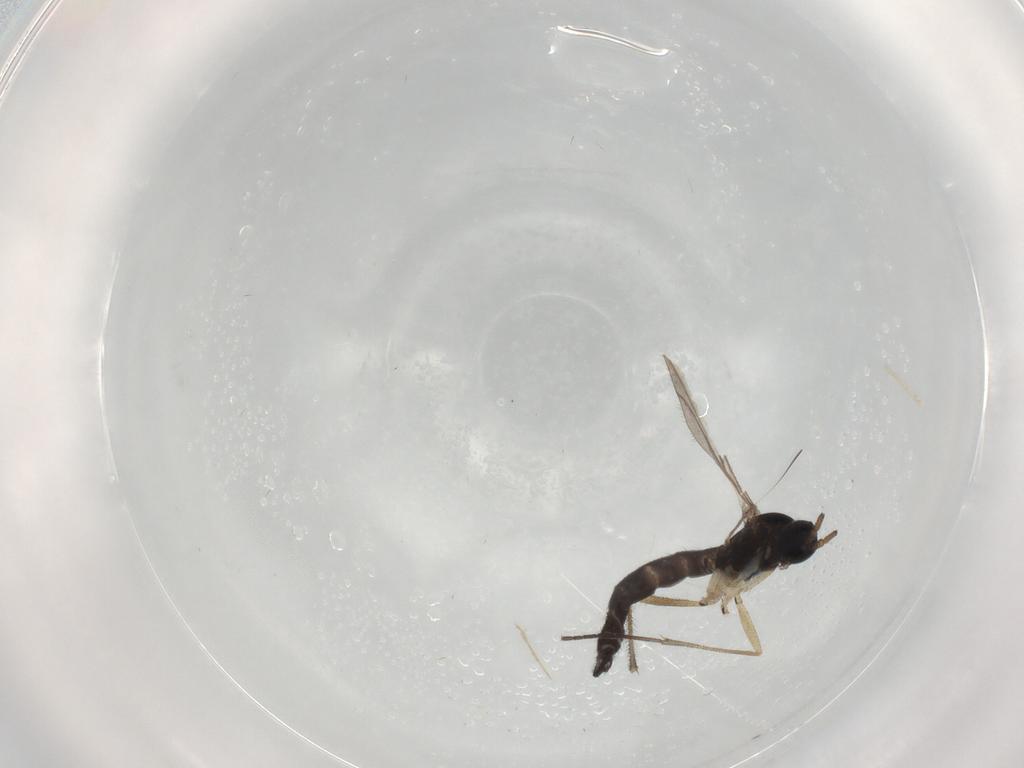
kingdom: Animalia
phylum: Arthropoda
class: Insecta
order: Diptera
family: Sciaridae
